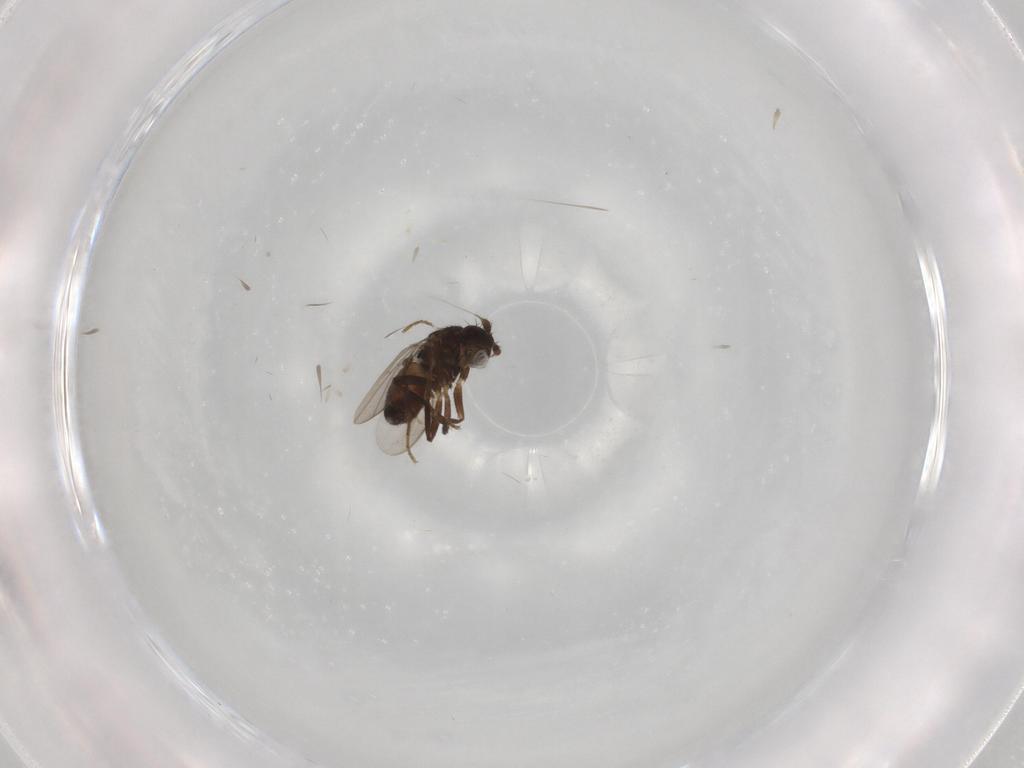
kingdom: Animalia
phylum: Arthropoda
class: Insecta
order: Diptera
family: Sphaeroceridae
